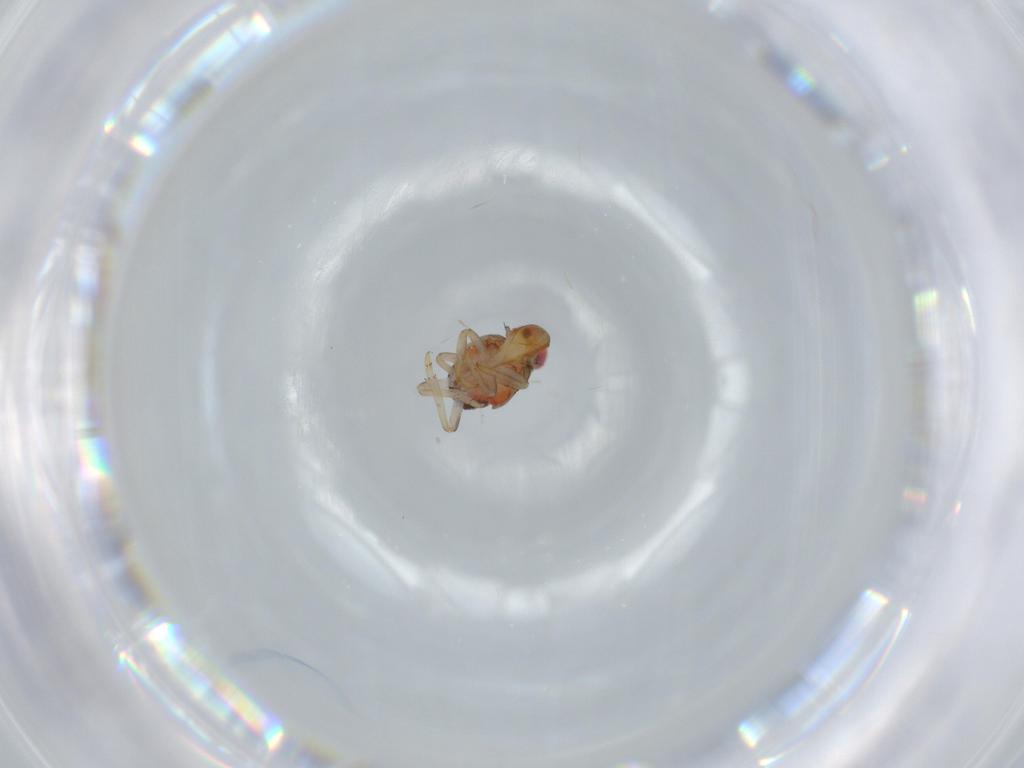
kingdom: Animalia
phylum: Arthropoda
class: Insecta
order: Hemiptera
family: Issidae
